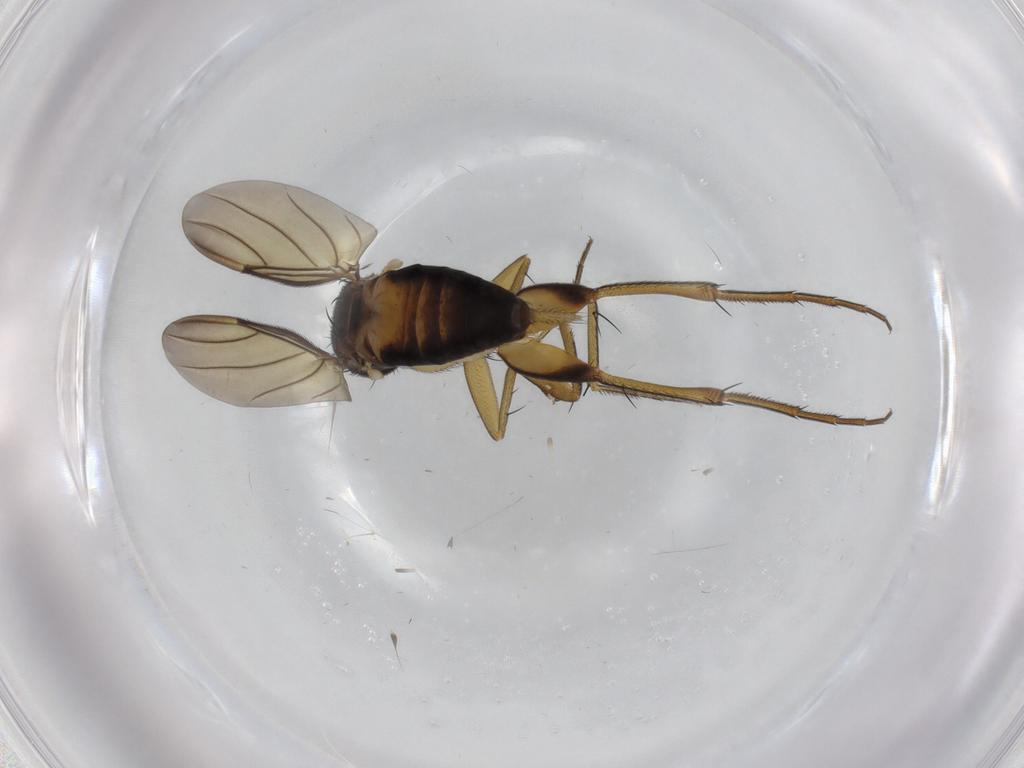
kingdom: Animalia
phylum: Arthropoda
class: Insecta
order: Diptera
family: Phoridae
